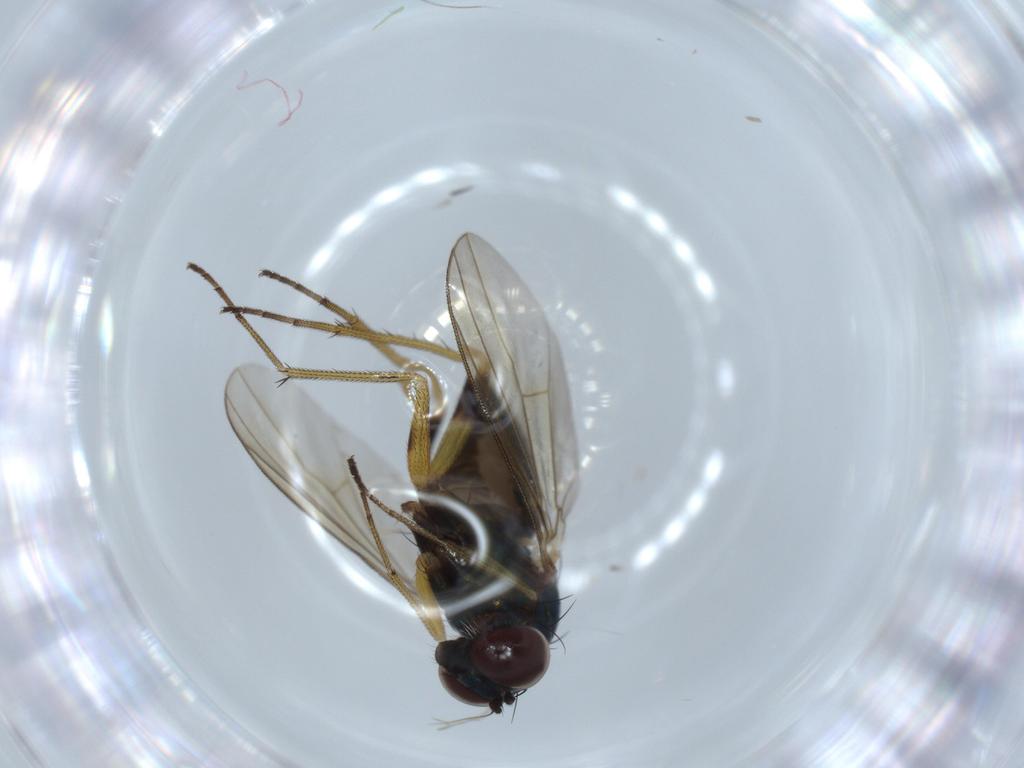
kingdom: Animalia
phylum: Arthropoda
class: Insecta
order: Diptera
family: Dolichopodidae
